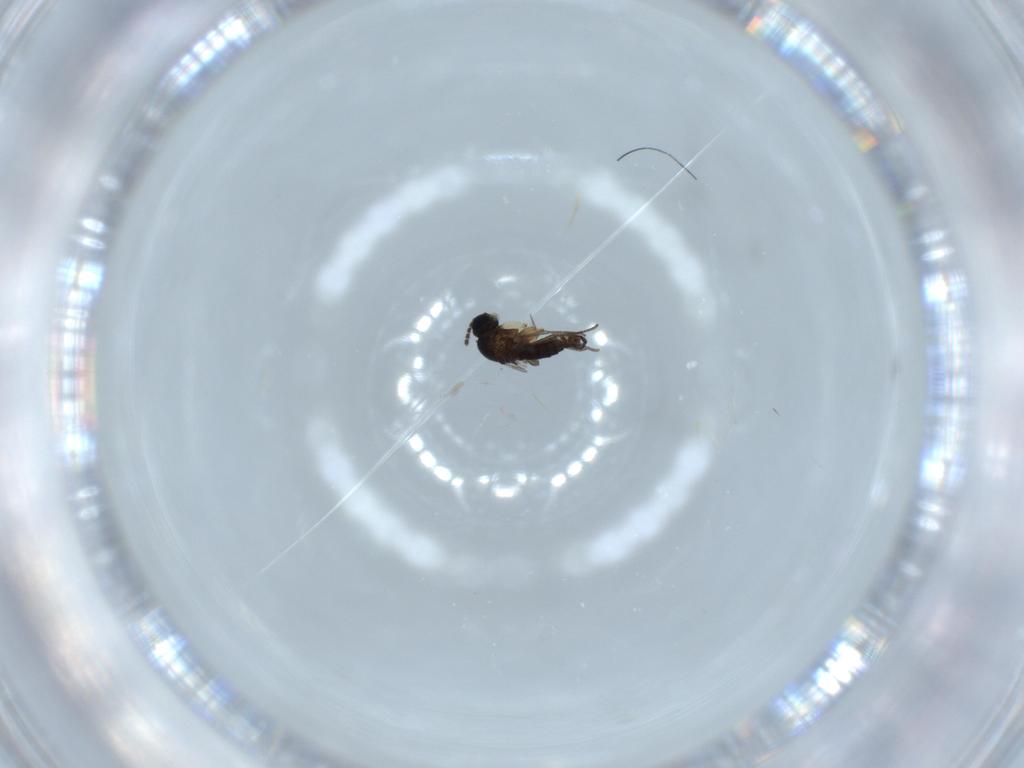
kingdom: Animalia
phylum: Arthropoda
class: Insecta
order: Diptera
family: Sciaridae
